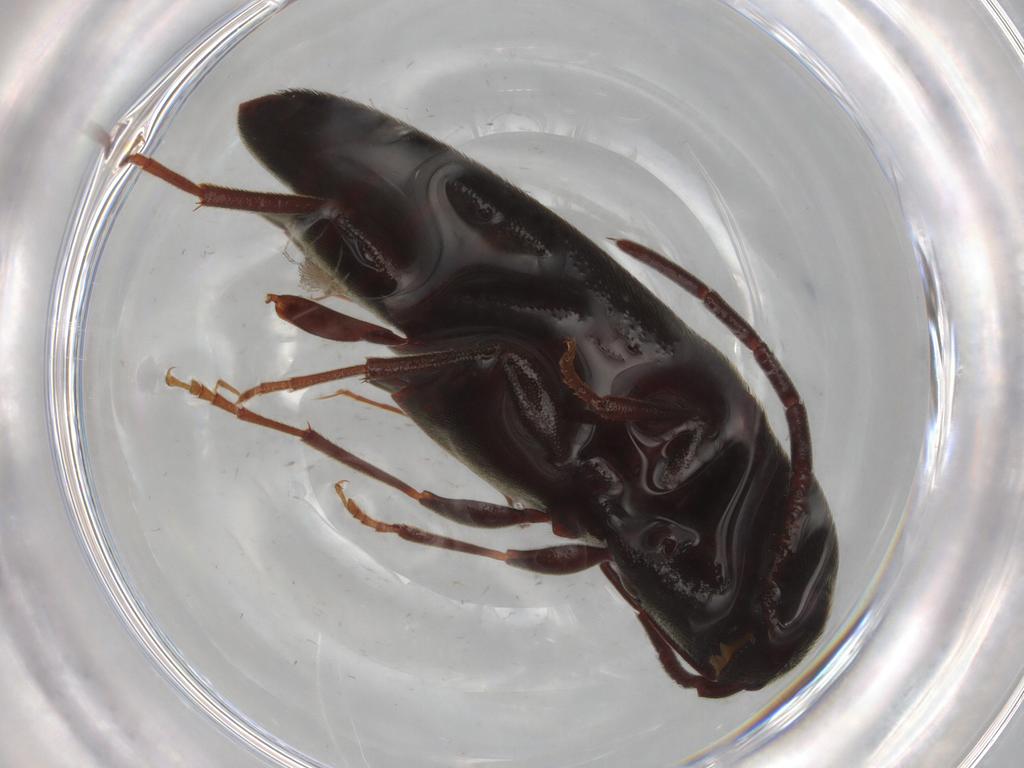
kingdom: Animalia
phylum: Arthropoda
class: Insecta
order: Coleoptera
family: Eucnemidae
